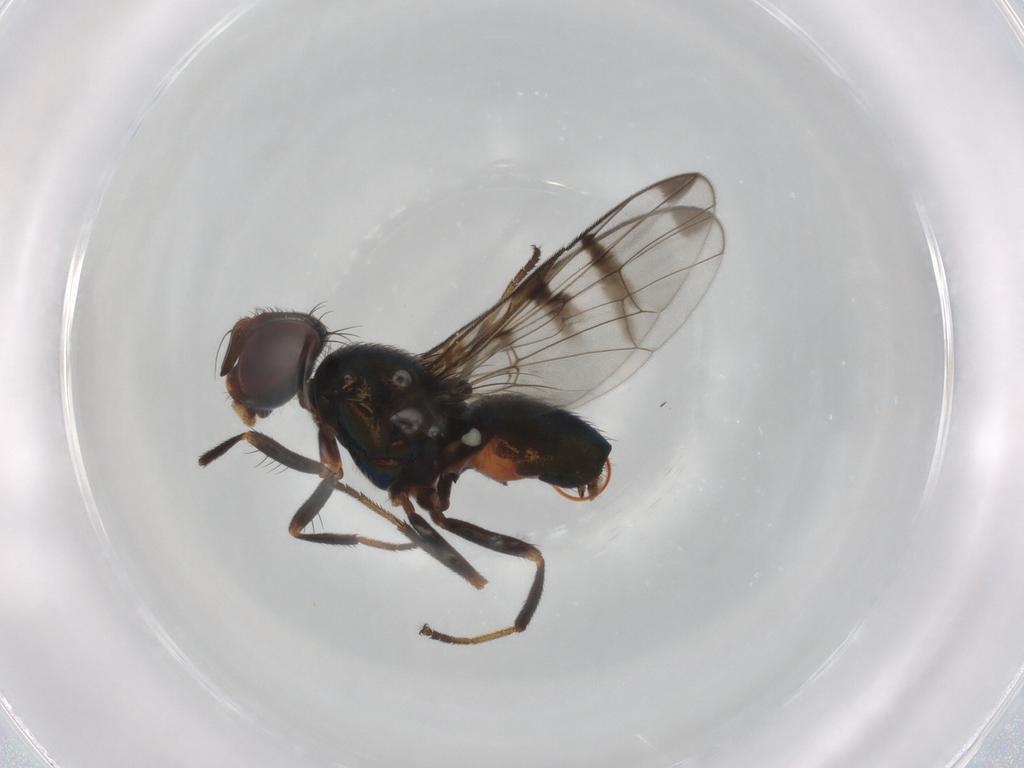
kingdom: Animalia
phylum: Arthropoda
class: Insecta
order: Diptera
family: Platystomatidae
